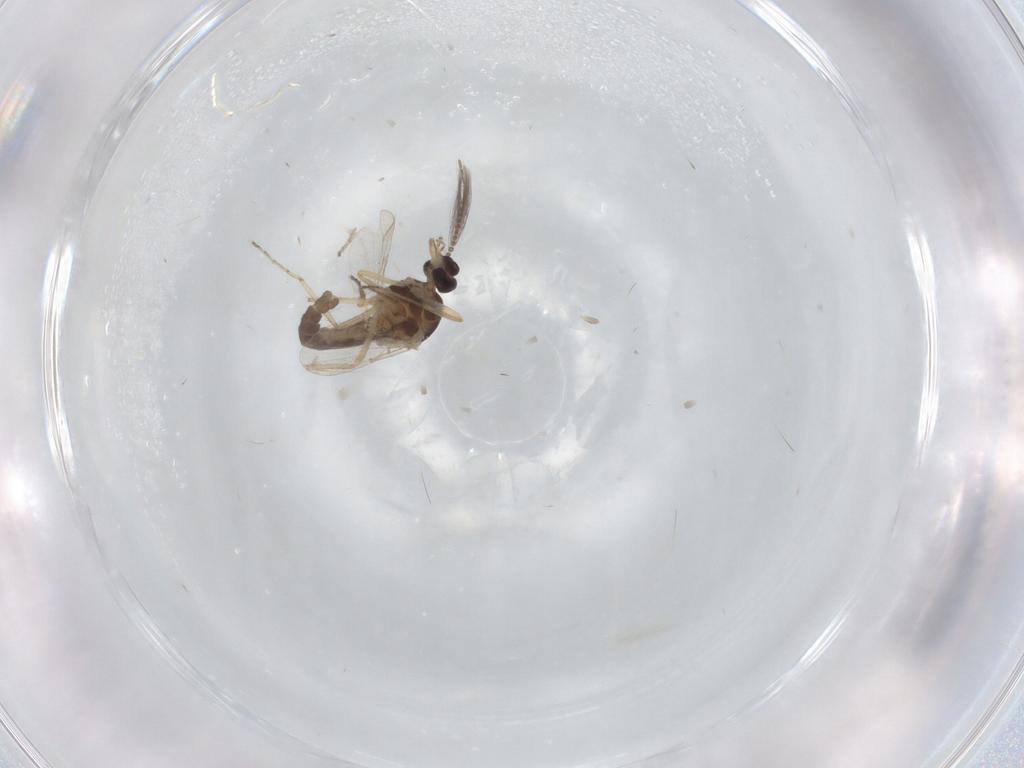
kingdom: Animalia
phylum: Arthropoda
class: Insecta
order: Diptera
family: Ceratopogonidae
